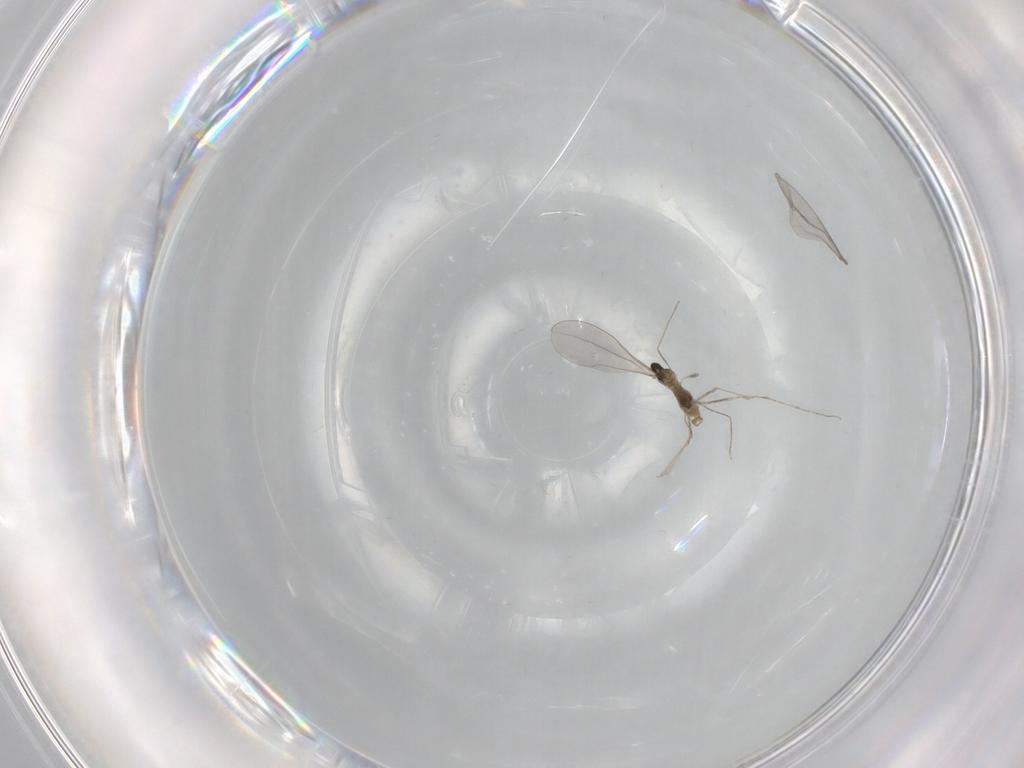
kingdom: Animalia
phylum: Arthropoda
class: Insecta
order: Diptera
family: Cecidomyiidae
